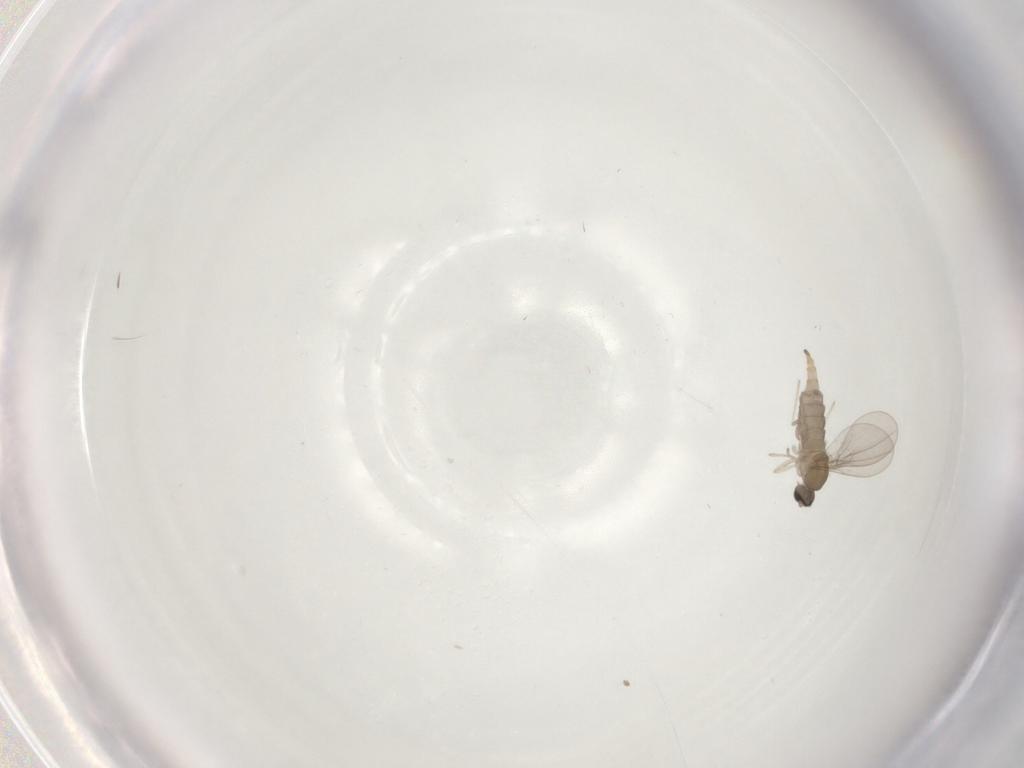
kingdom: Animalia
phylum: Arthropoda
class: Insecta
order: Diptera
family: Cecidomyiidae
